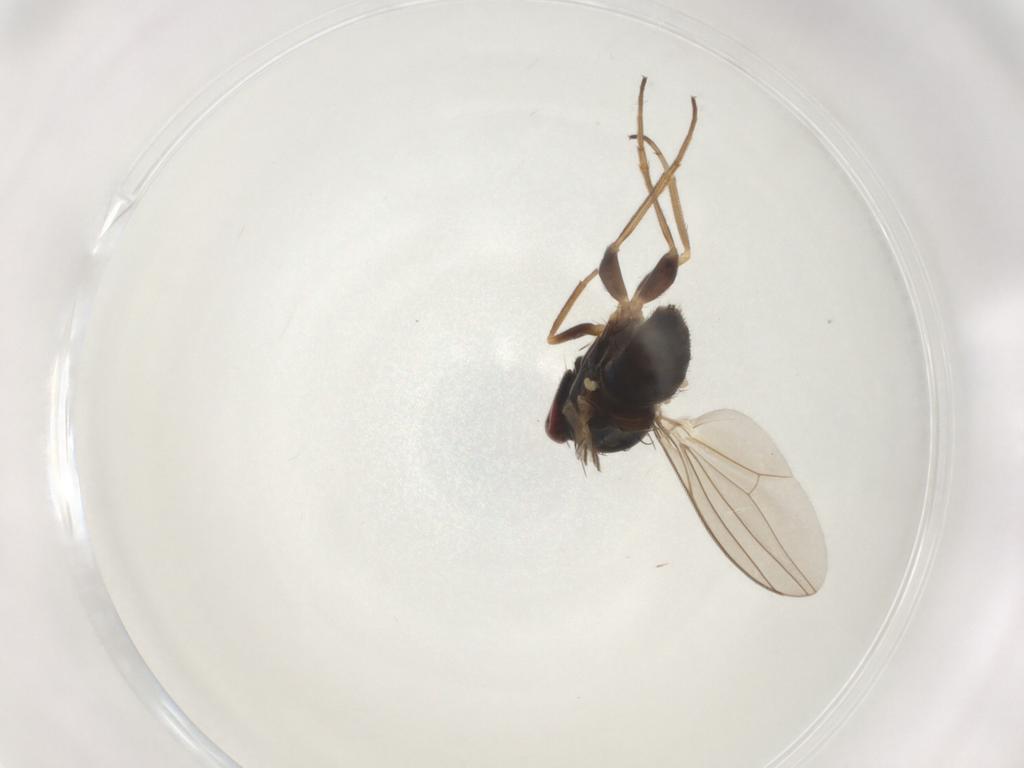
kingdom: Animalia
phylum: Arthropoda
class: Insecta
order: Diptera
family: Dolichopodidae
